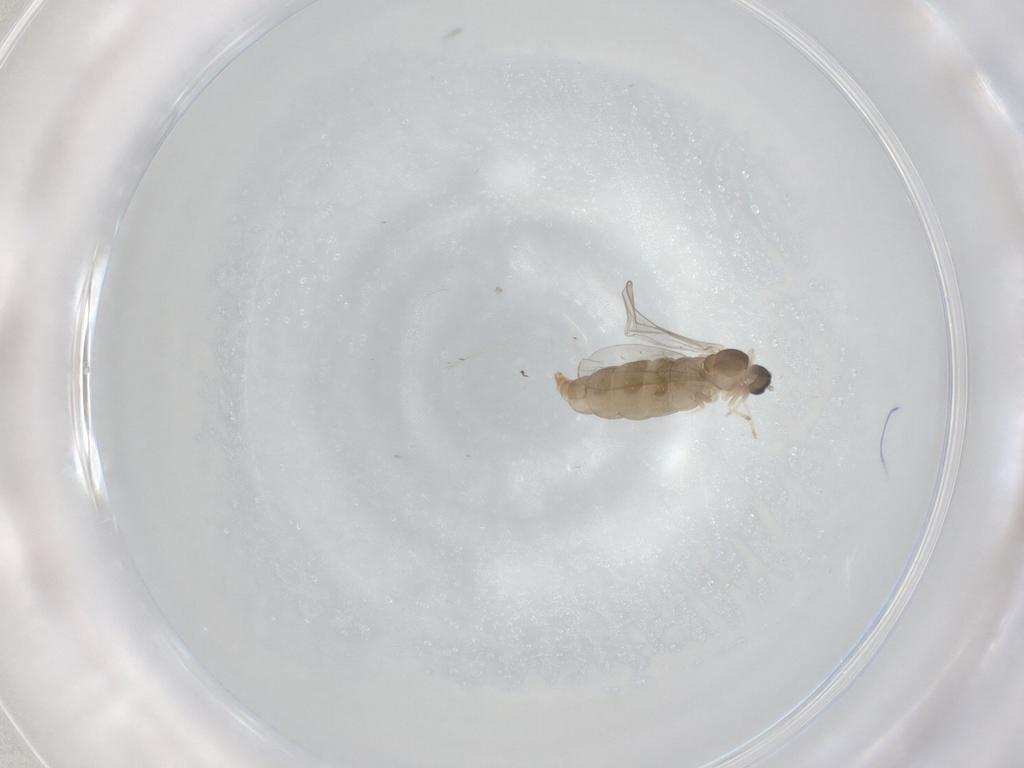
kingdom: Animalia
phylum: Arthropoda
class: Insecta
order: Diptera
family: Cecidomyiidae
